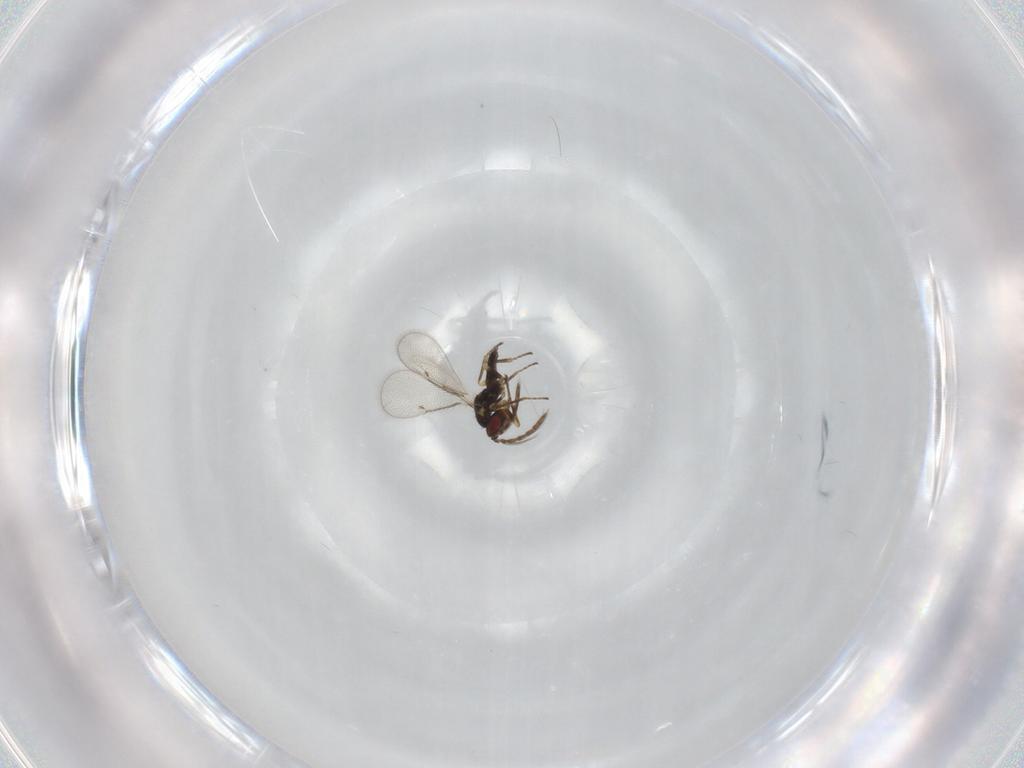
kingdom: Animalia
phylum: Arthropoda
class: Insecta
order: Hymenoptera
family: Eulophidae
